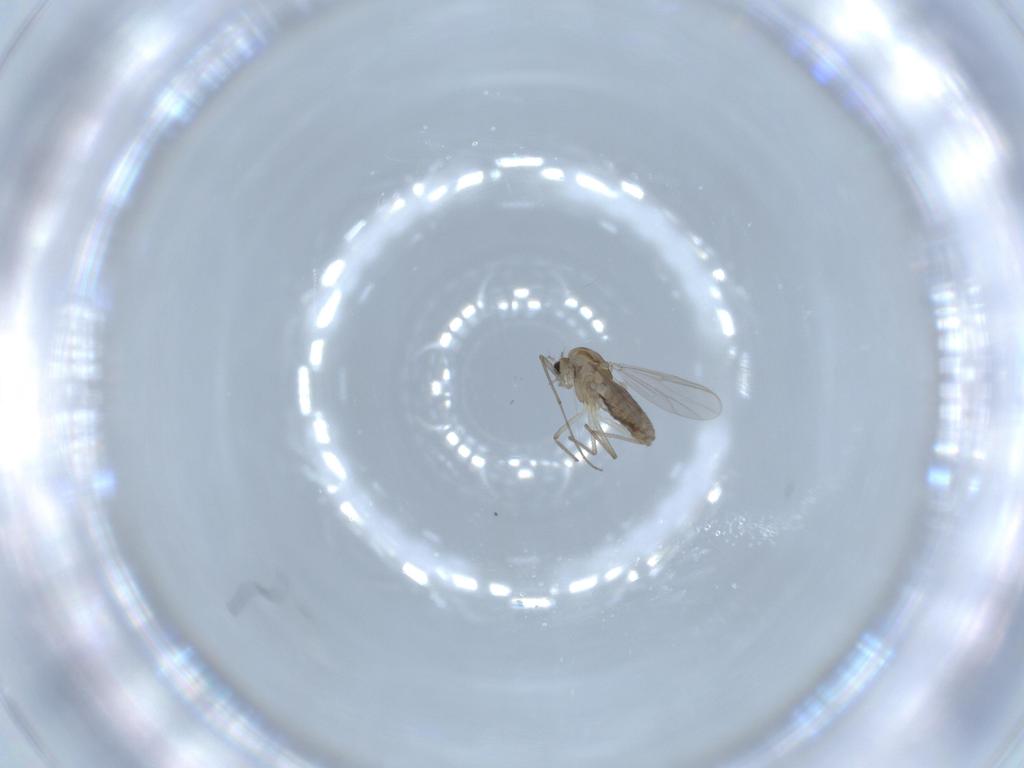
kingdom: Animalia
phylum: Arthropoda
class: Insecta
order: Diptera
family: Chironomidae
